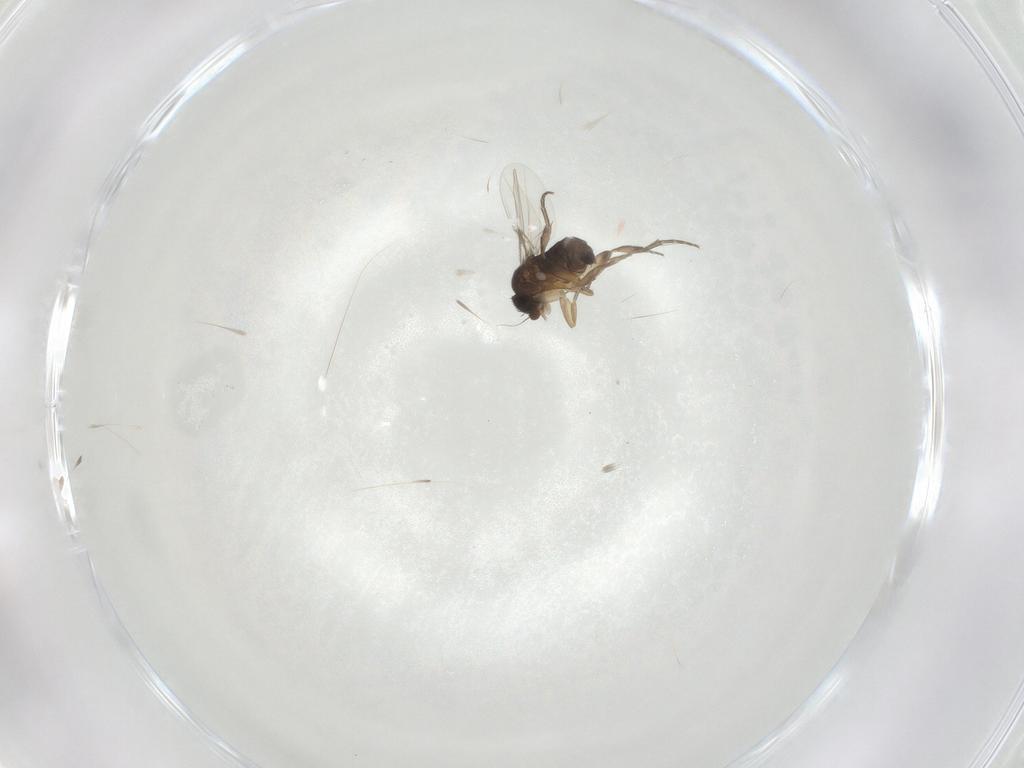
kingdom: Animalia
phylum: Arthropoda
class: Insecta
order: Diptera
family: Phoridae
